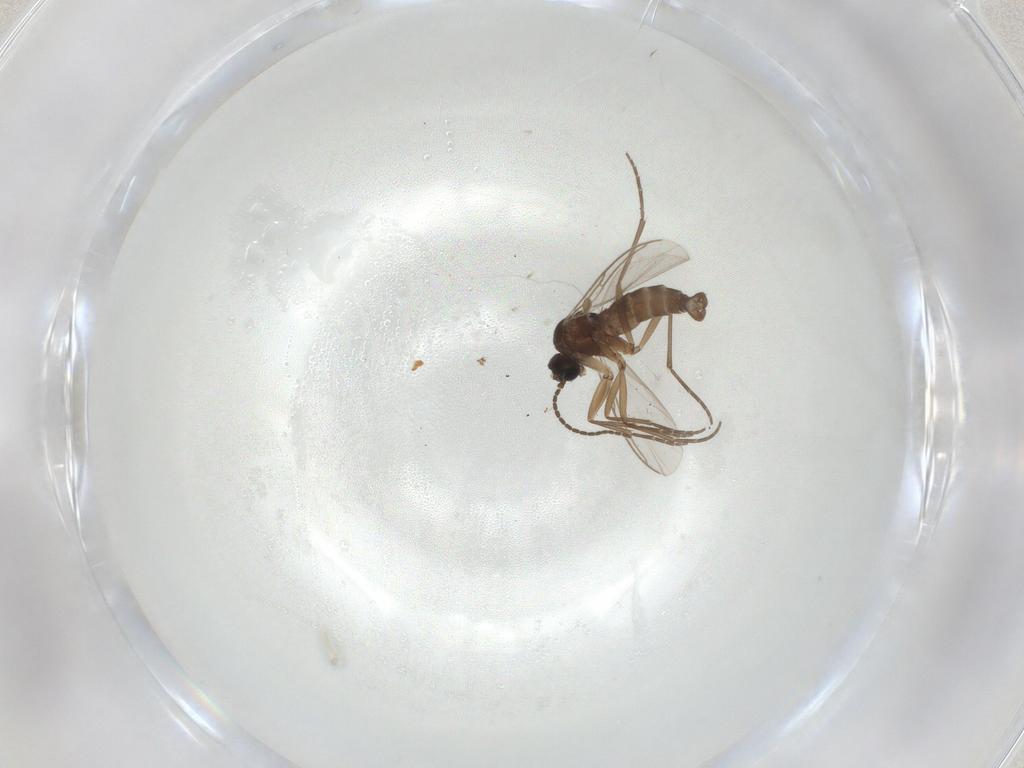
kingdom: Animalia
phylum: Arthropoda
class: Insecta
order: Diptera
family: Sciaridae
